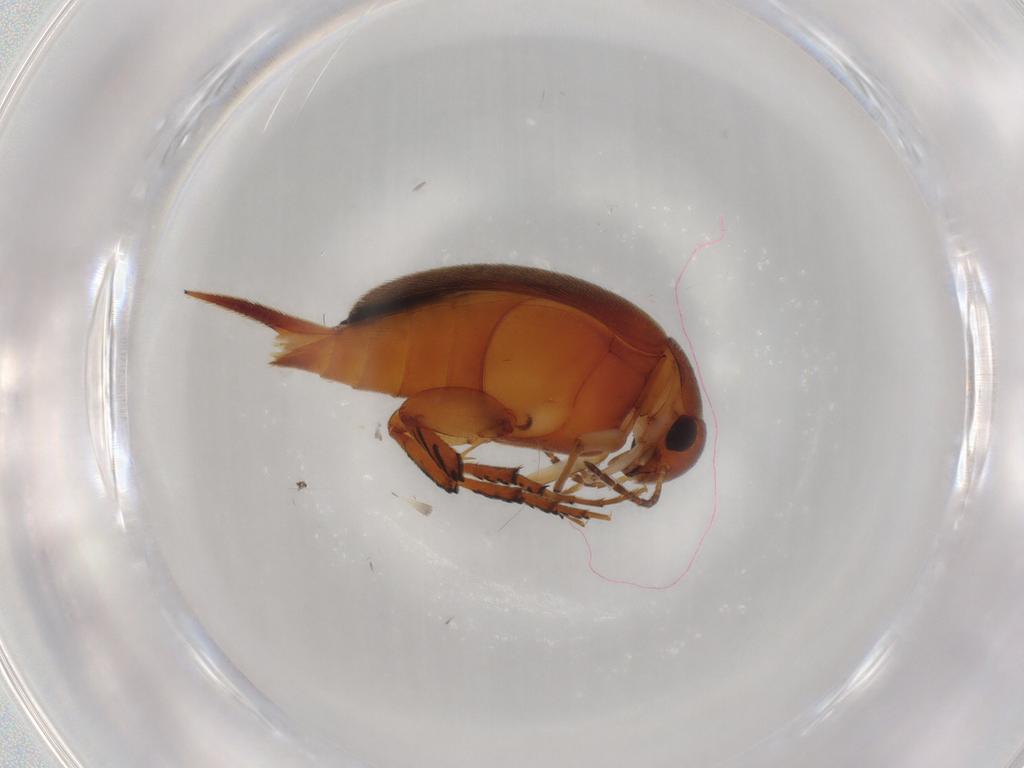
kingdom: Animalia
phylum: Arthropoda
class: Insecta
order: Coleoptera
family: Mordellidae
